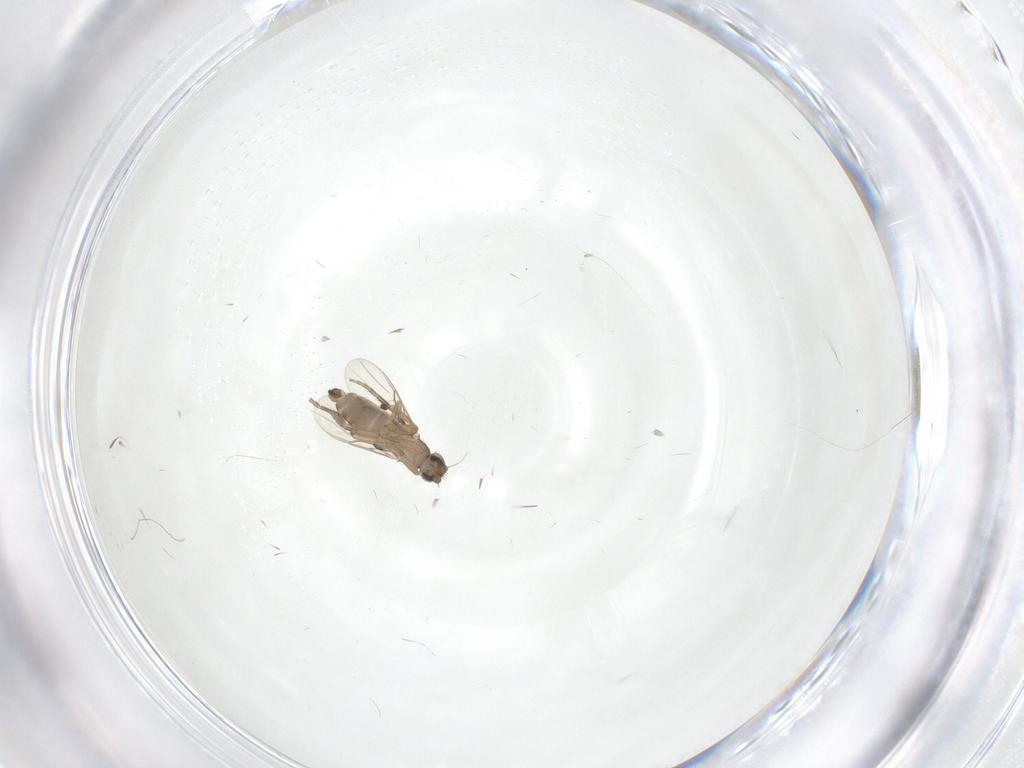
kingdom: Animalia
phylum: Arthropoda
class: Insecta
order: Diptera
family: Phoridae
